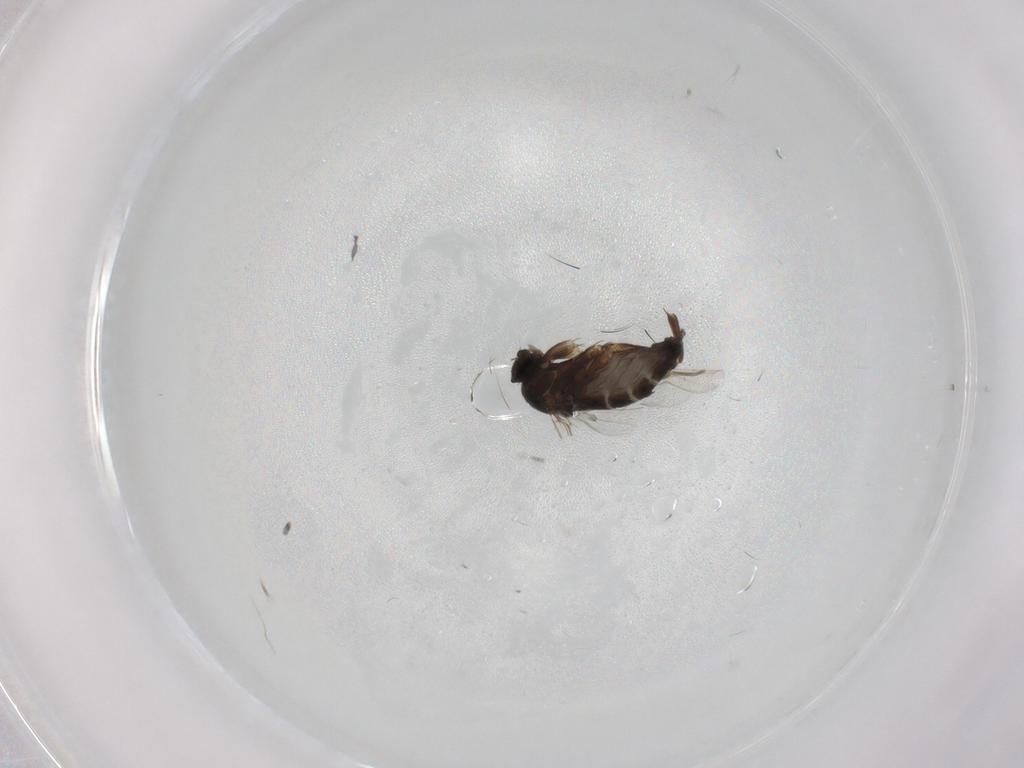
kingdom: Animalia
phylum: Arthropoda
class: Insecta
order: Diptera
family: Phoridae
